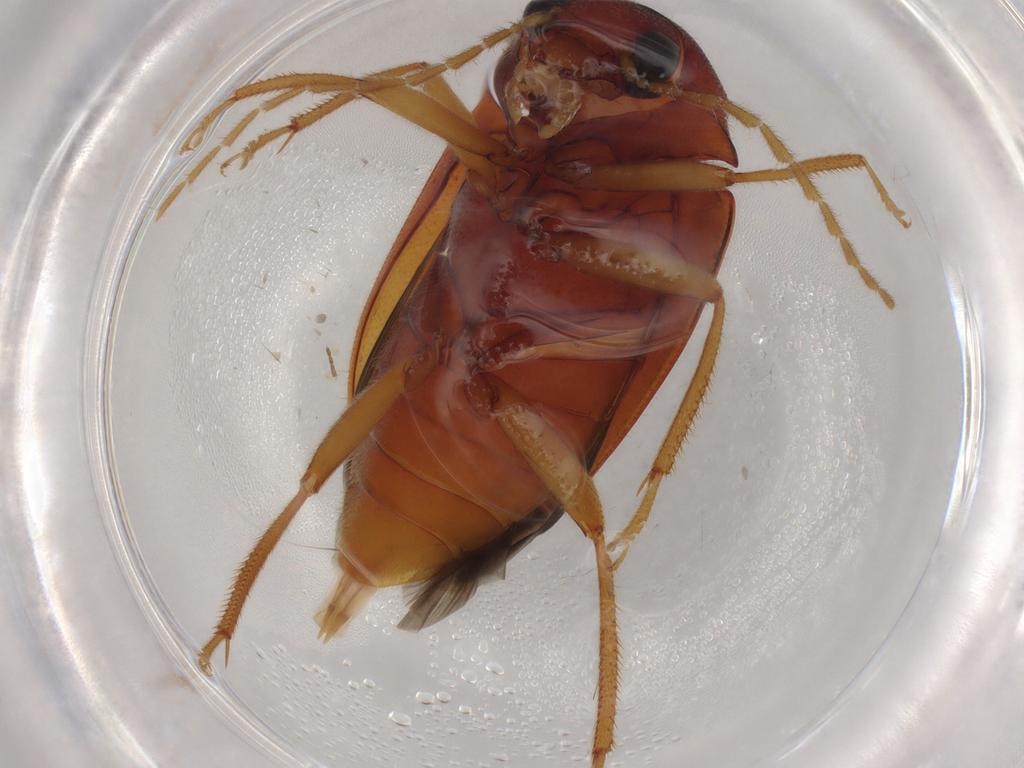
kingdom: Animalia
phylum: Arthropoda
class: Insecta
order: Coleoptera
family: Ptilodactylidae
